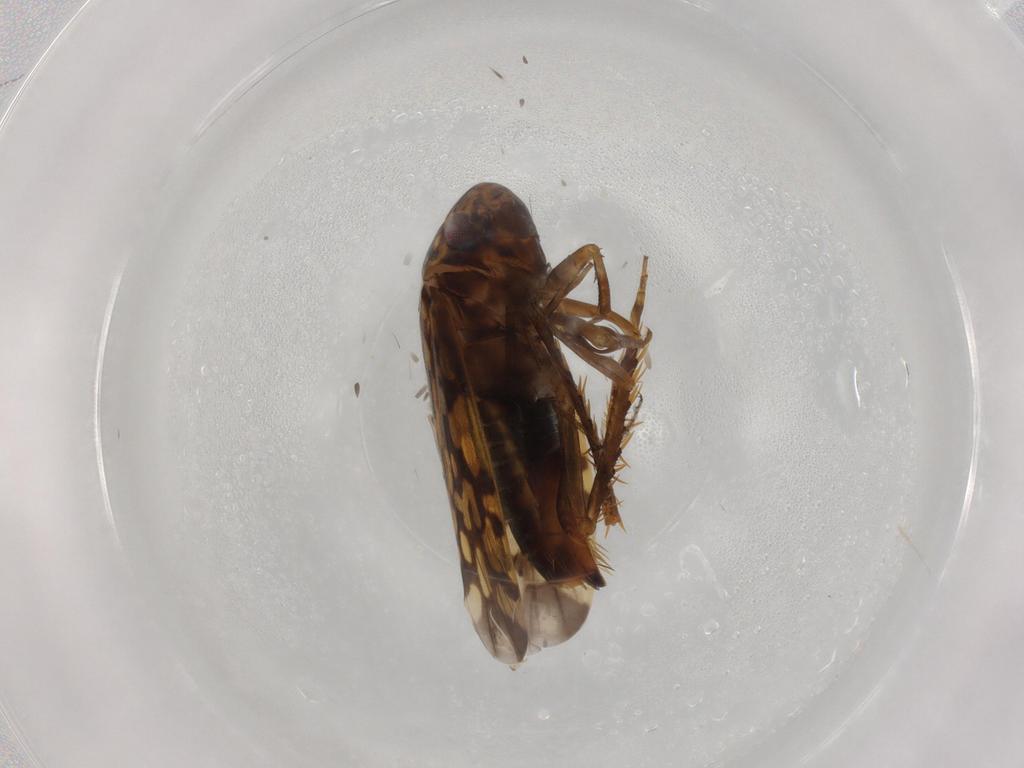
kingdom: Animalia
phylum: Arthropoda
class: Insecta
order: Hemiptera
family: Cicadellidae
